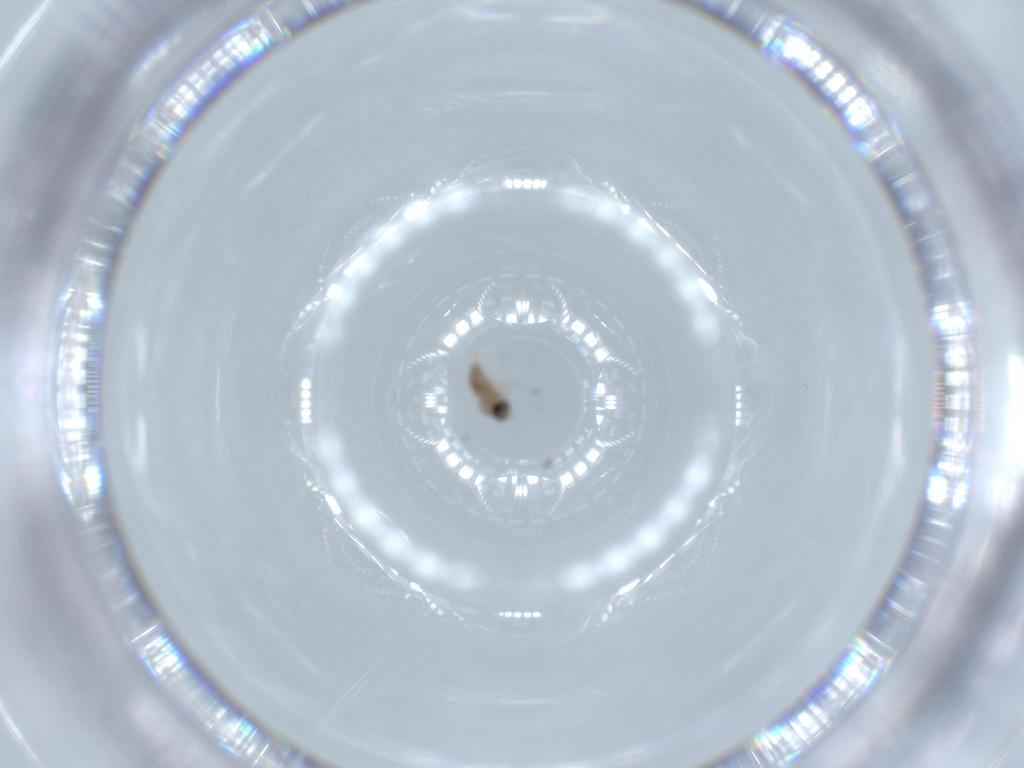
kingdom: Animalia
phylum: Arthropoda
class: Insecta
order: Diptera
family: Cecidomyiidae
